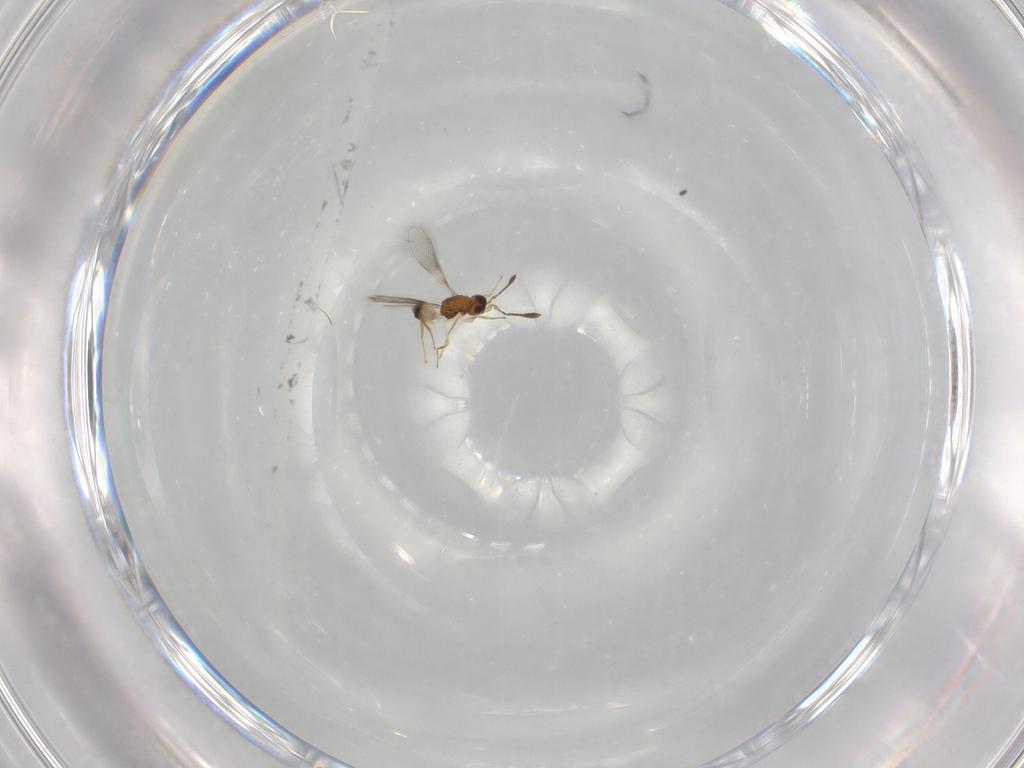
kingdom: Animalia
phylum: Arthropoda
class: Insecta
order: Hymenoptera
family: Mymaridae
